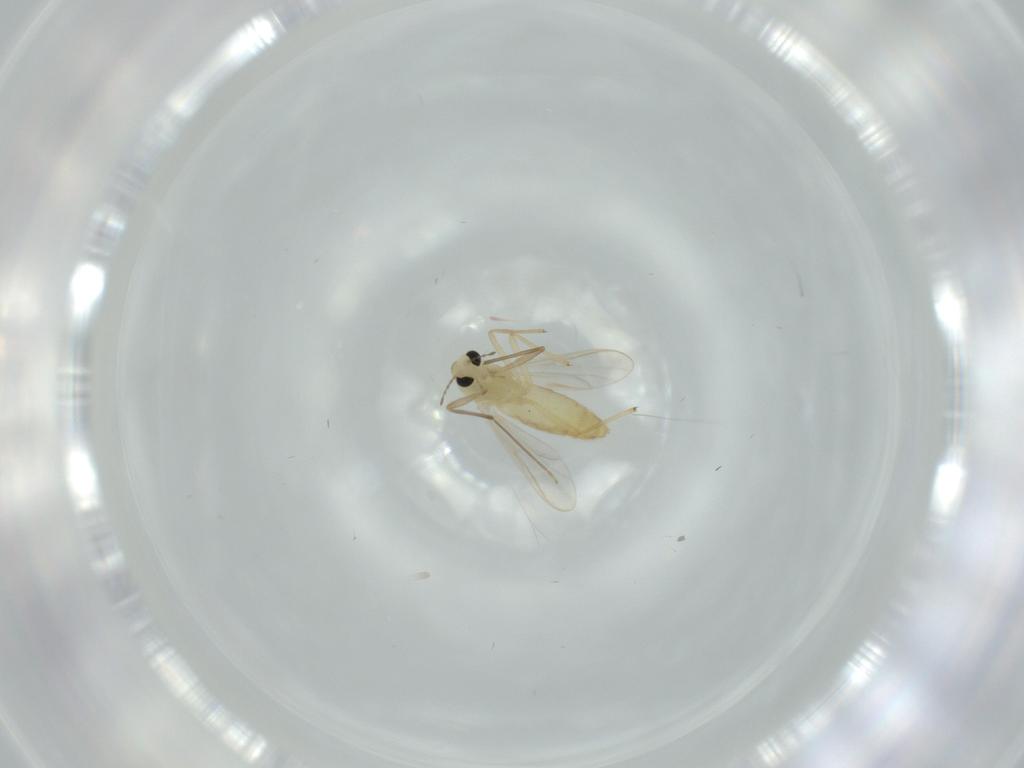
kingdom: Animalia
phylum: Arthropoda
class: Insecta
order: Diptera
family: Chironomidae
